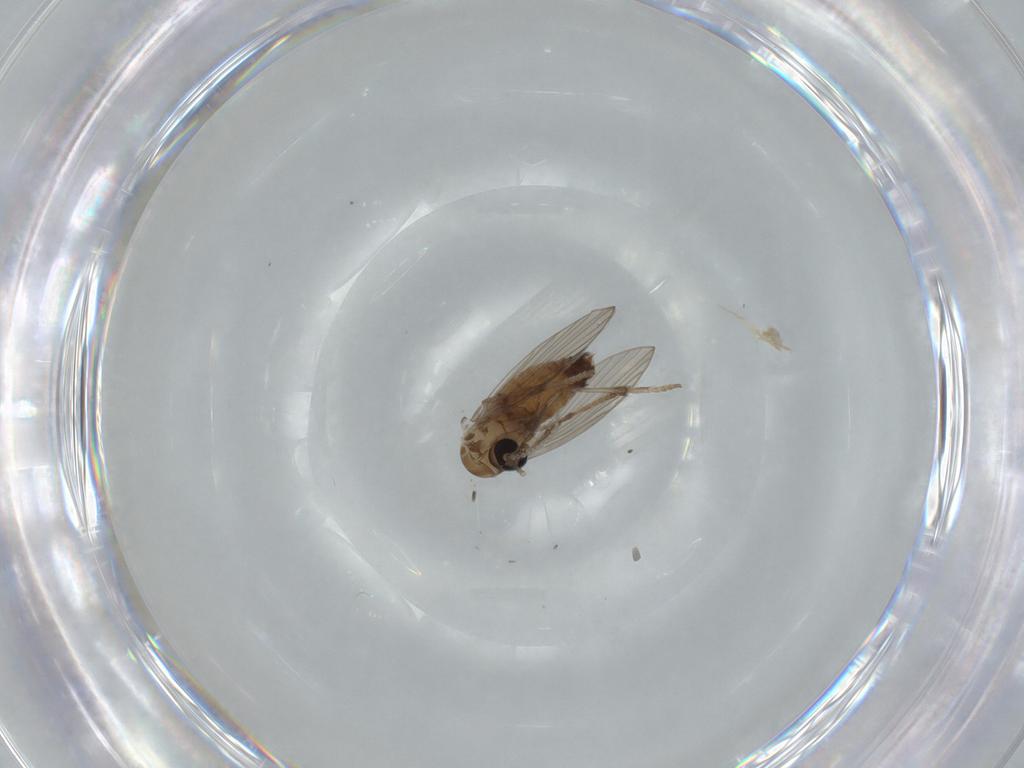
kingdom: Animalia
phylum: Arthropoda
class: Insecta
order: Diptera
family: Psychodidae
